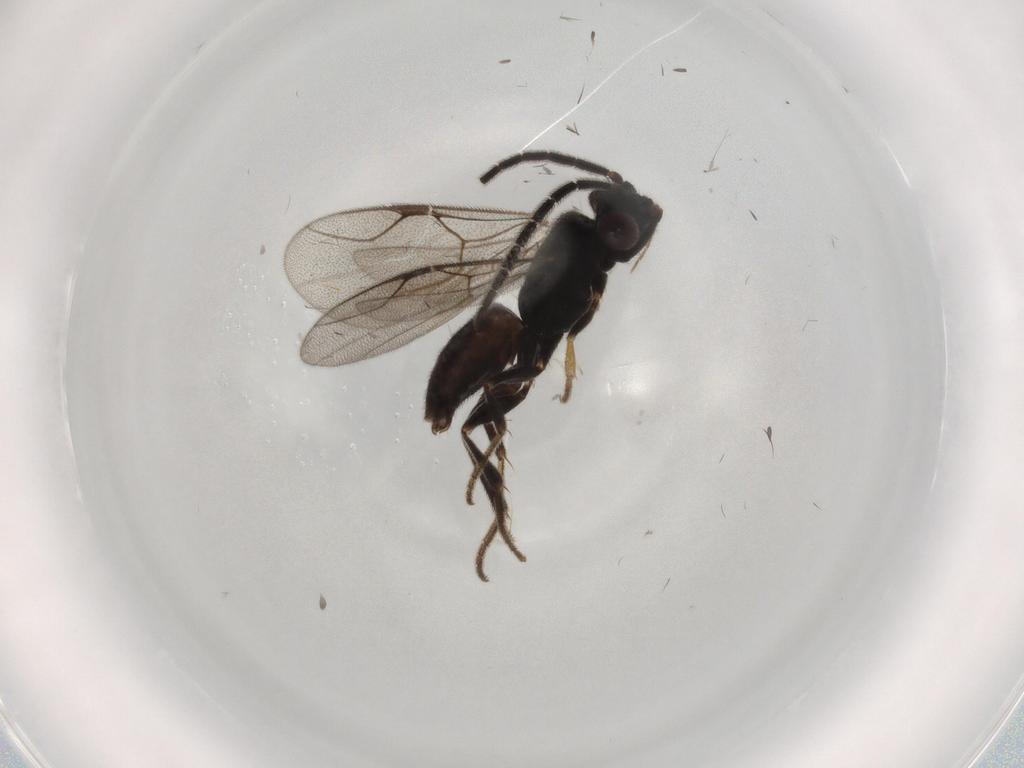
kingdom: Animalia
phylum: Arthropoda
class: Insecta
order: Hymenoptera
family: Dryinidae
